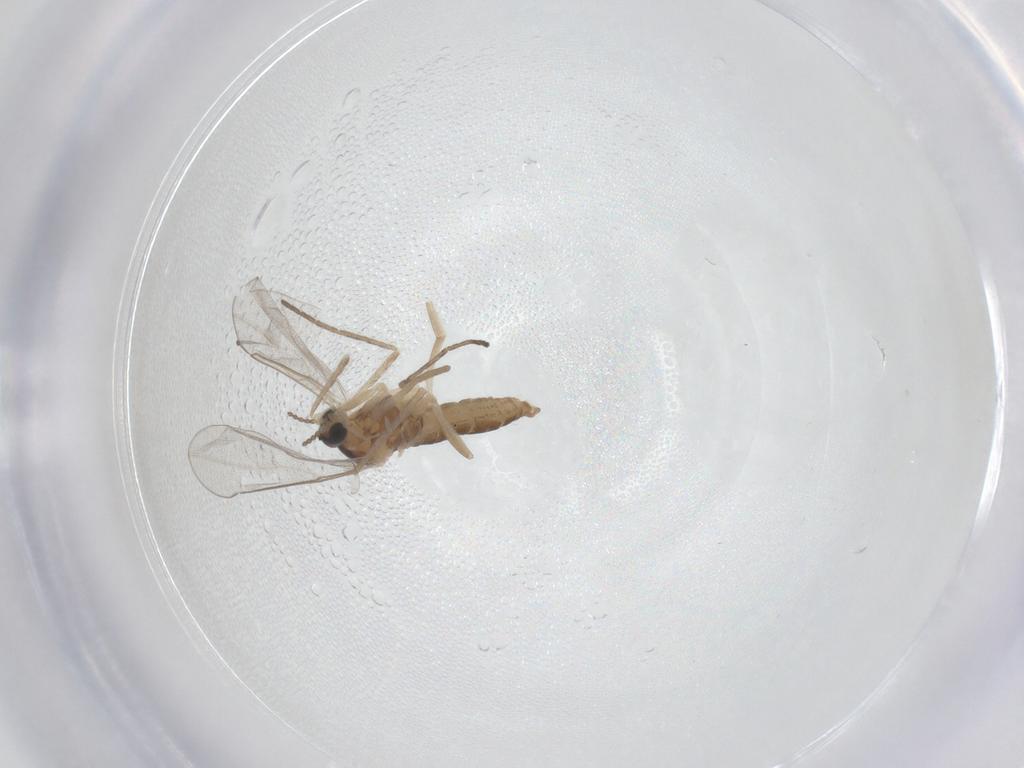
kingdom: Animalia
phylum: Arthropoda
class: Insecta
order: Diptera
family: Cecidomyiidae
